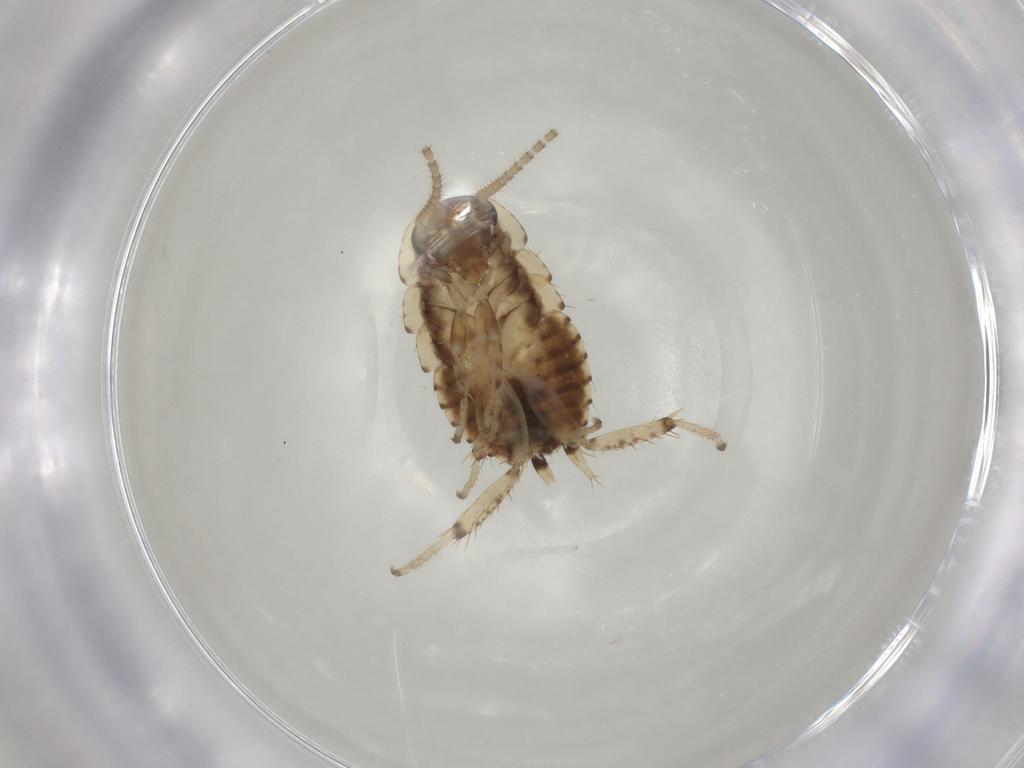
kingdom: Animalia
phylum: Arthropoda
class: Insecta
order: Blattodea
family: Blaberidae
